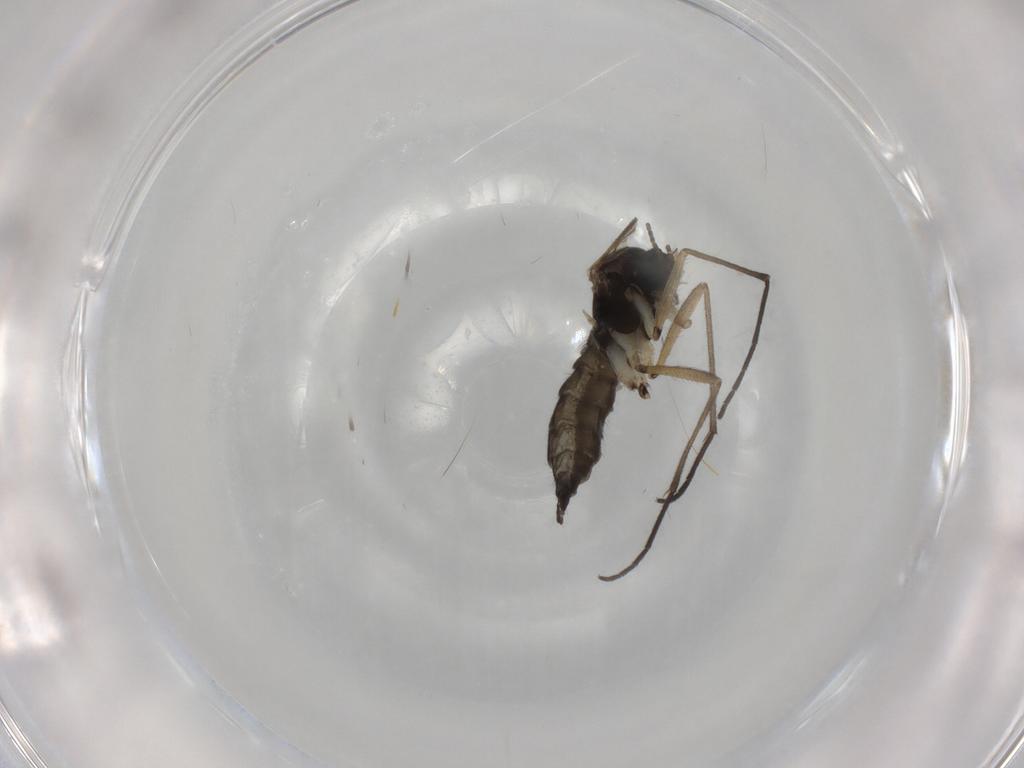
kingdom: Animalia
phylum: Arthropoda
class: Insecta
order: Diptera
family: Sciaridae
